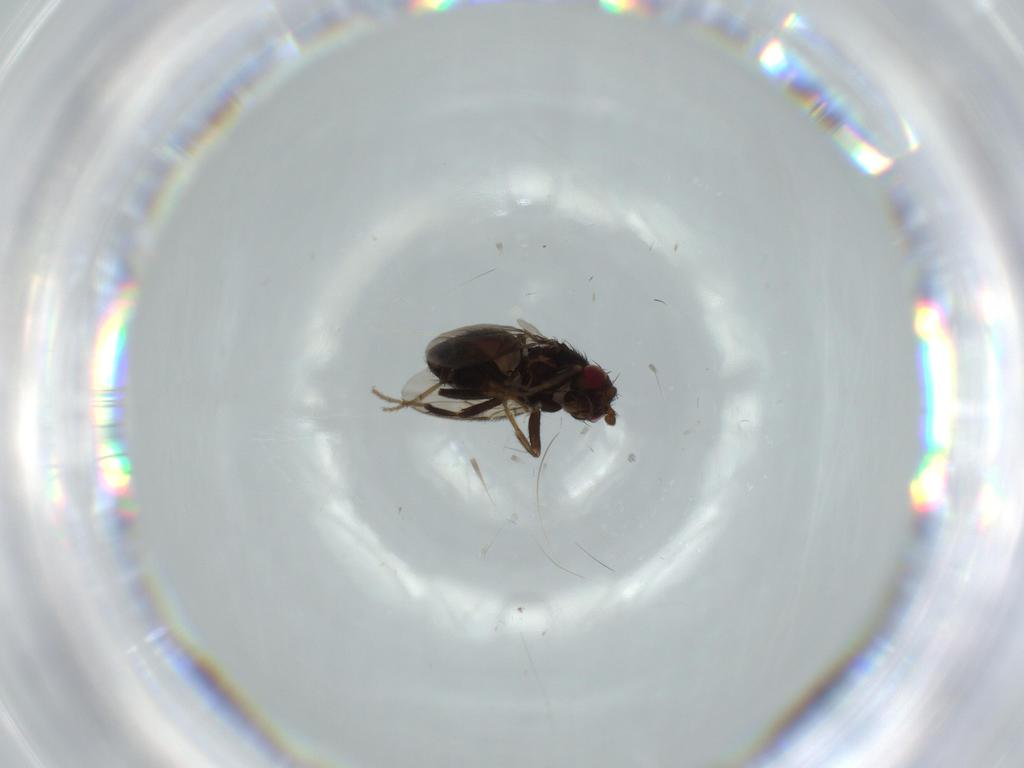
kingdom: Animalia
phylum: Arthropoda
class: Insecta
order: Diptera
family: Sphaeroceridae
